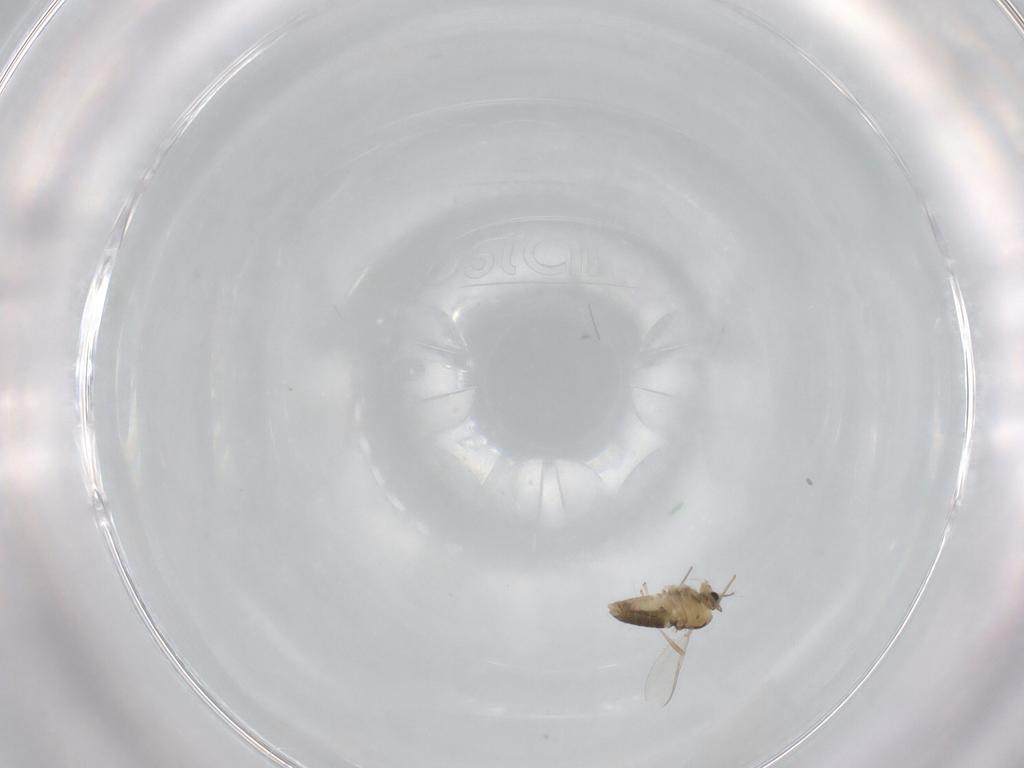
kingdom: Animalia
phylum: Arthropoda
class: Insecta
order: Diptera
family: Chironomidae
